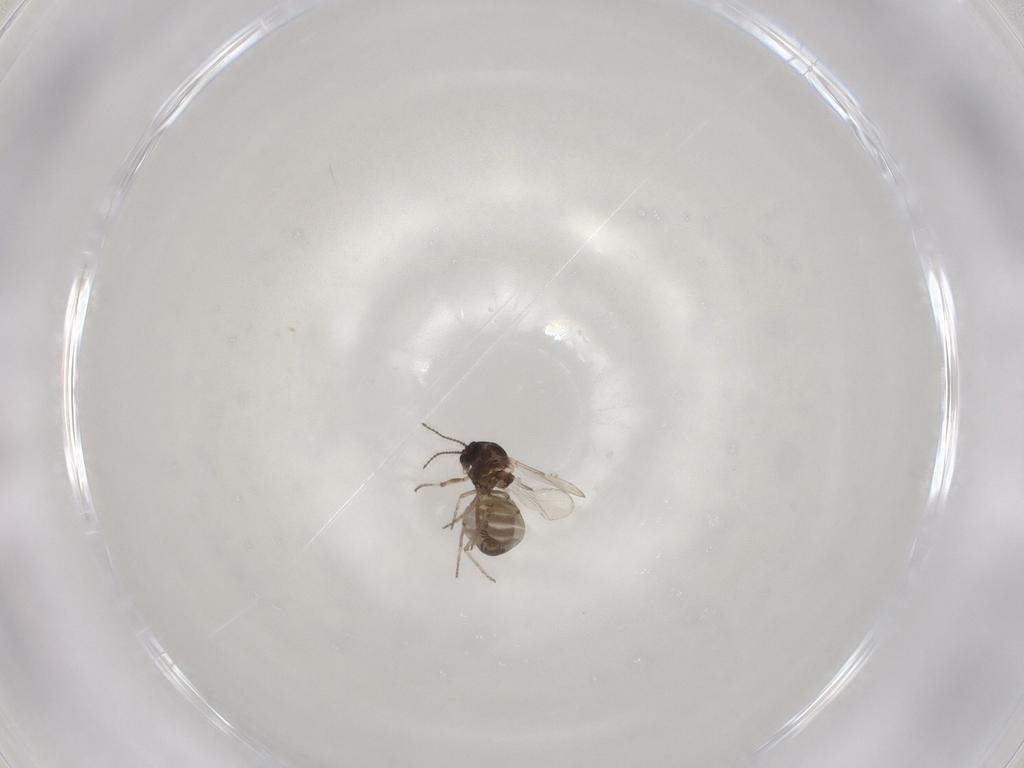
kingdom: Animalia
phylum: Arthropoda
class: Insecta
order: Diptera
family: Ceratopogonidae
